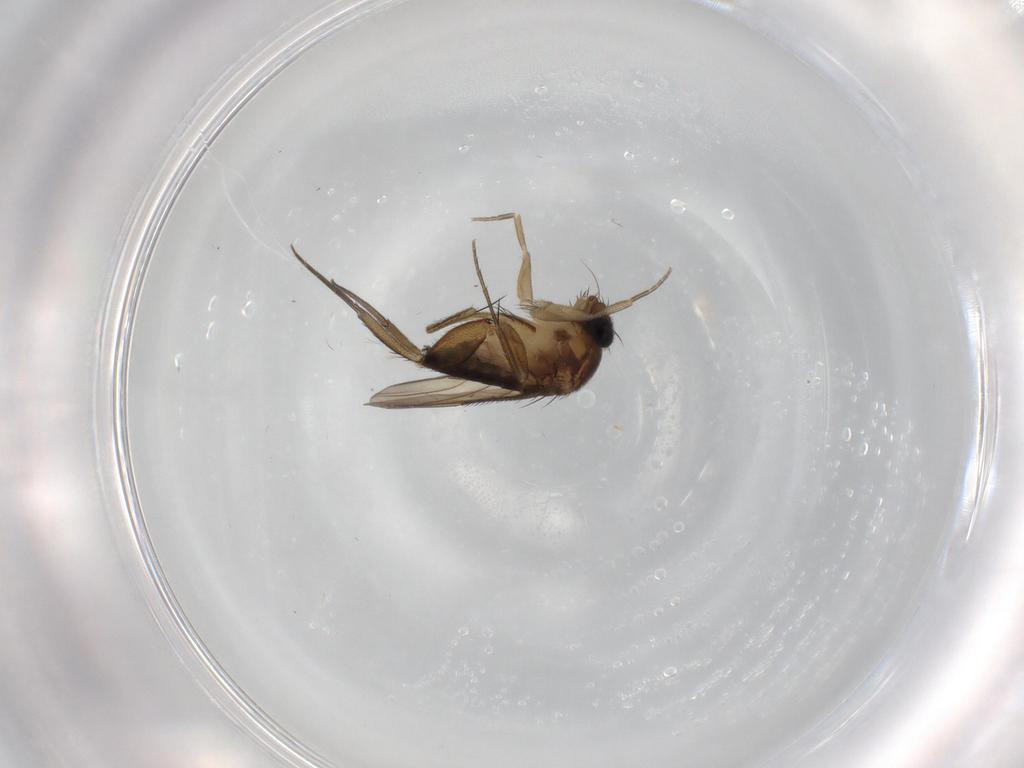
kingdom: Animalia
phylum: Arthropoda
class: Insecta
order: Diptera
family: Phoridae
